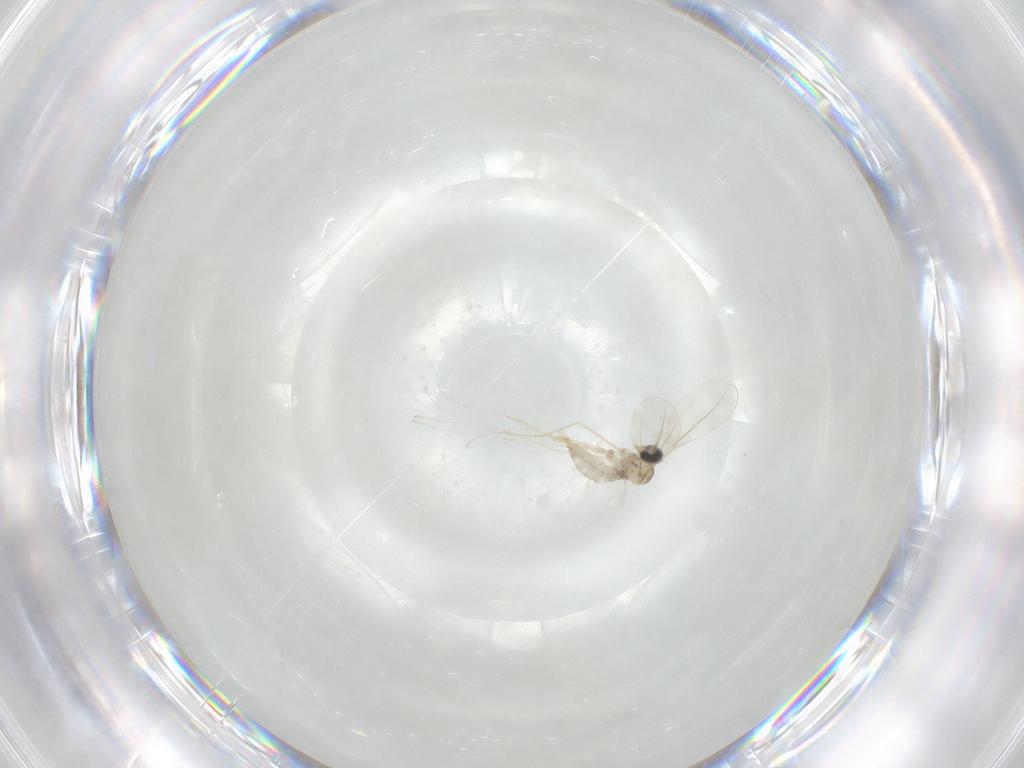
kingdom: Animalia
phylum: Arthropoda
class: Insecta
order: Diptera
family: Cecidomyiidae
